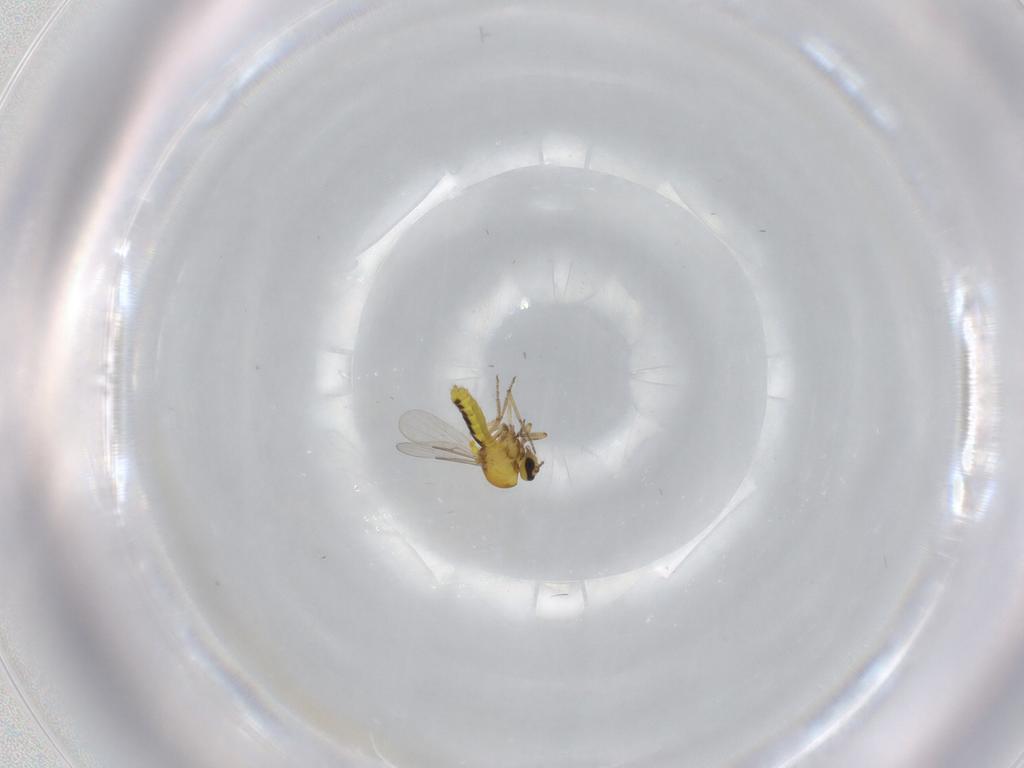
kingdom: Animalia
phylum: Arthropoda
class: Insecta
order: Diptera
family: Ceratopogonidae
